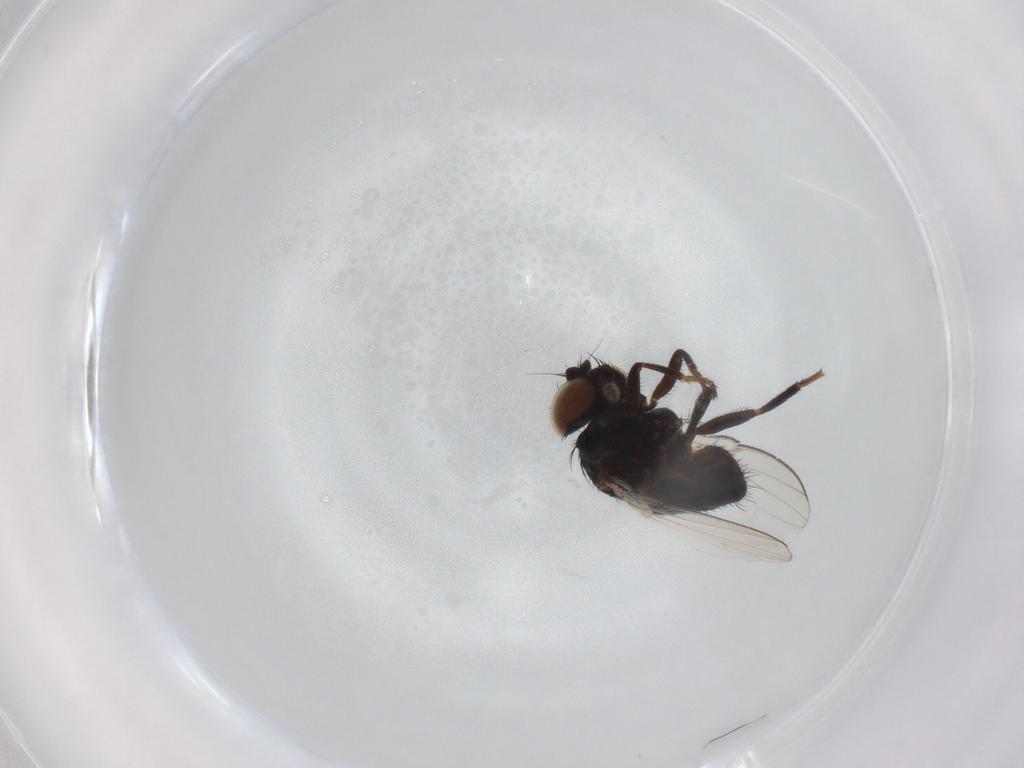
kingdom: Animalia
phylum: Arthropoda
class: Insecta
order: Diptera
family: Milichiidae
